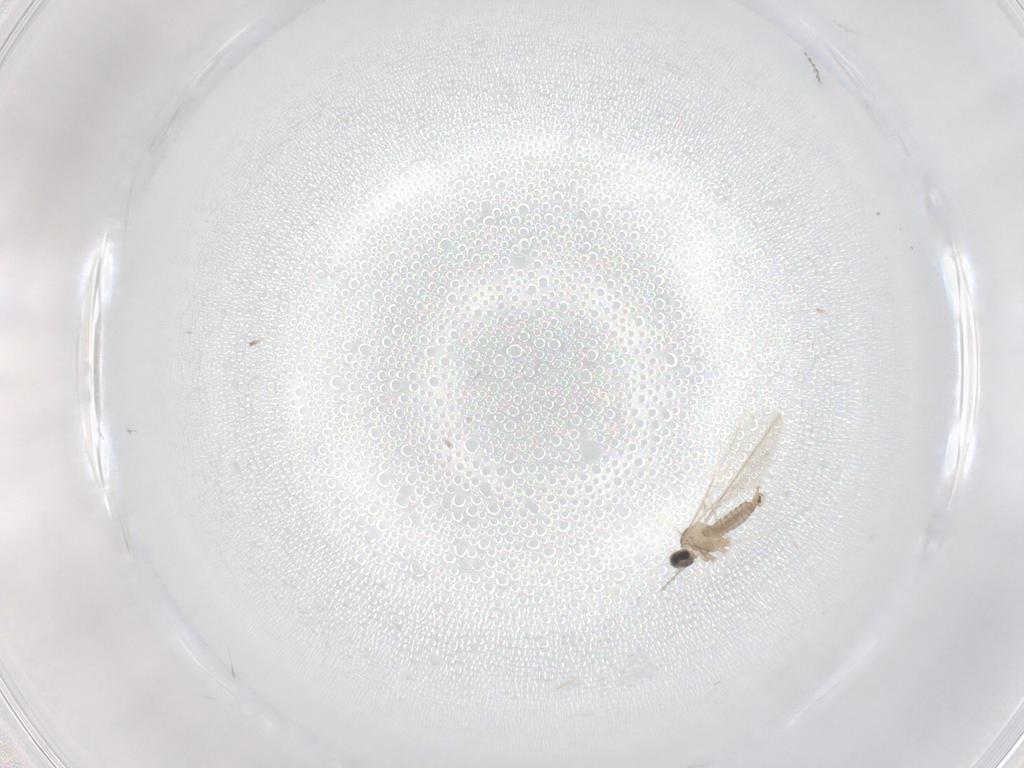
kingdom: Animalia
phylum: Arthropoda
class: Insecta
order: Diptera
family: Cecidomyiidae
